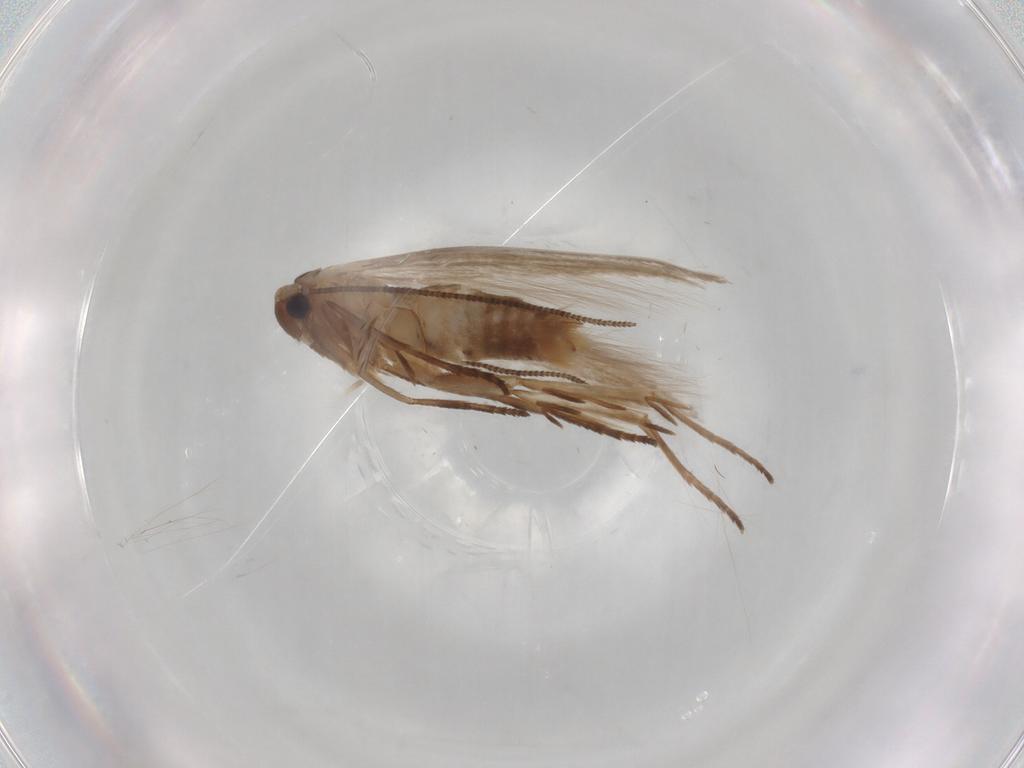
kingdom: Animalia
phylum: Arthropoda
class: Insecta
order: Lepidoptera
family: Bucculatricidae
